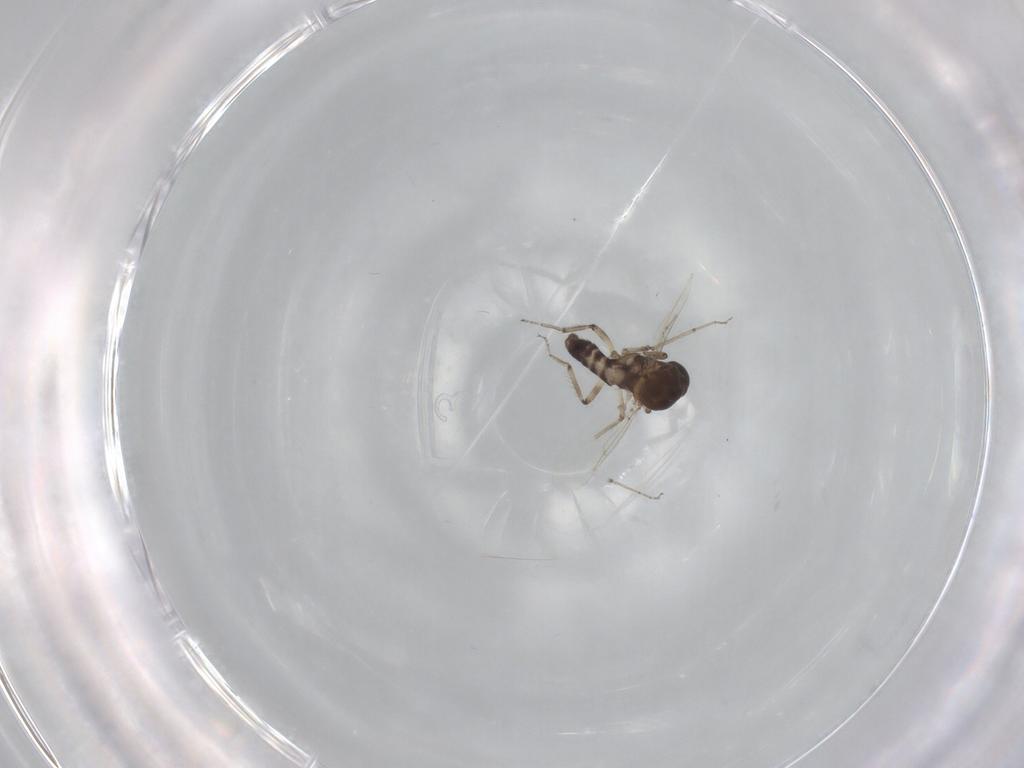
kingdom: Animalia
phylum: Arthropoda
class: Insecta
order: Diptera
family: Ceratopogonidae
